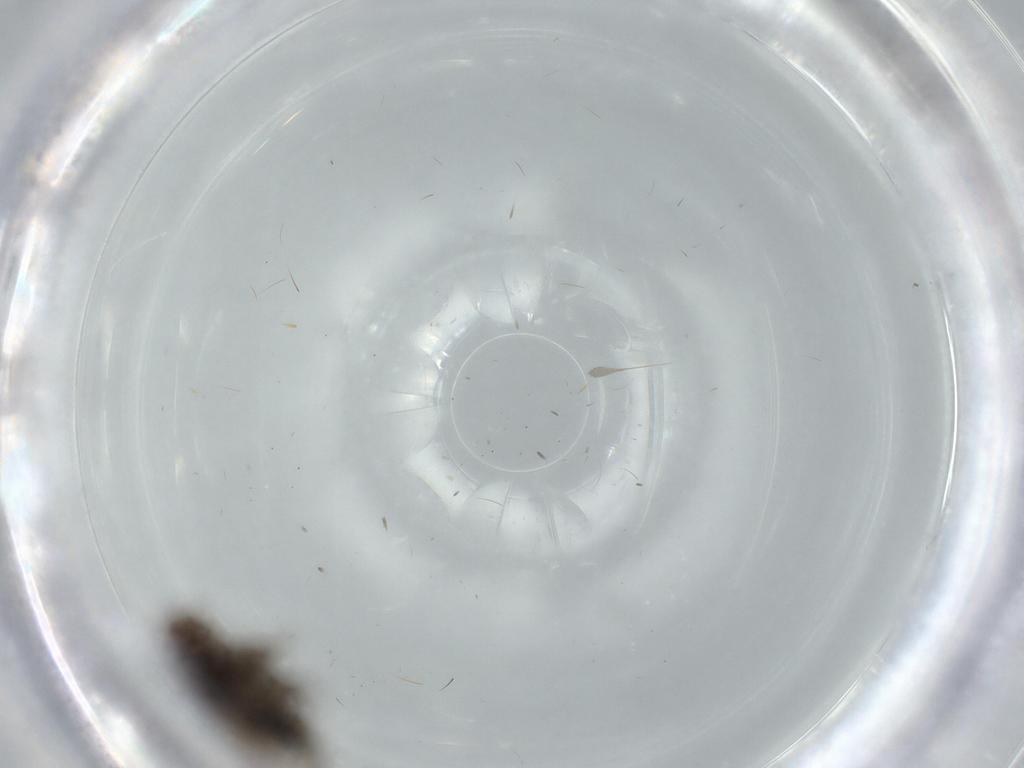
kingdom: Animalia
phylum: Arthropoda
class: Insecta
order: Diptera
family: Sphaeroceridae
